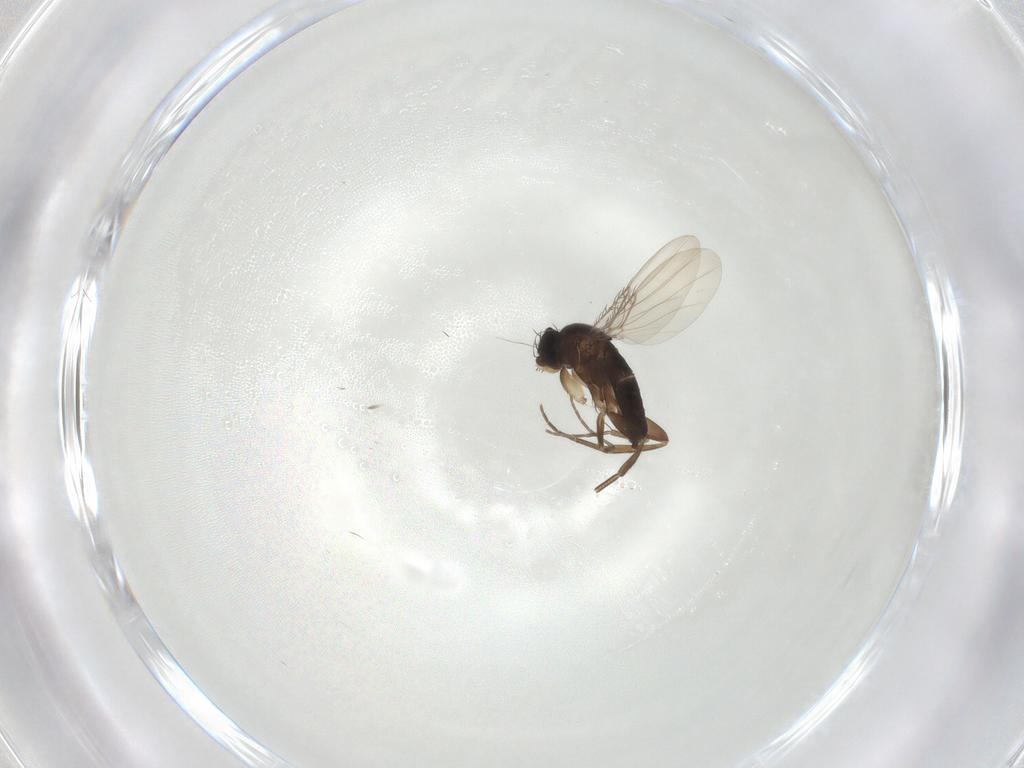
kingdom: Animalia
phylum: Arthropoda
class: Insecta
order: Diptera
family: Phoridae
